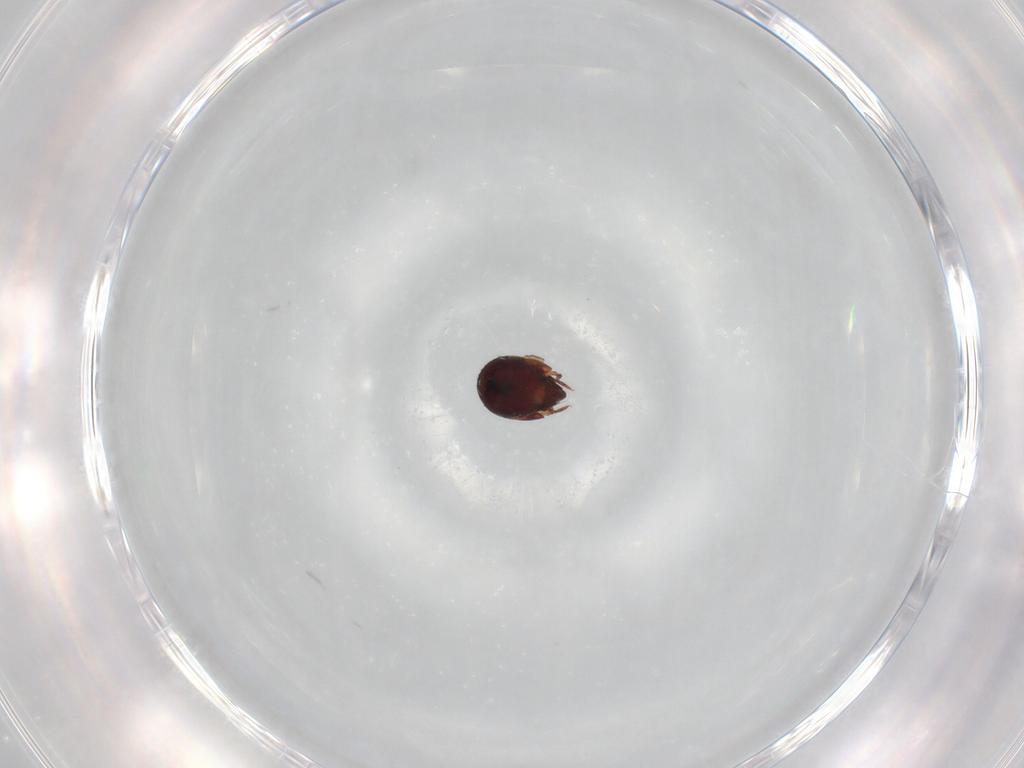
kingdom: Animalia
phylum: Arthropoda
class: Arachnida
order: Sarcoptiformes
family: Humerobatidae
